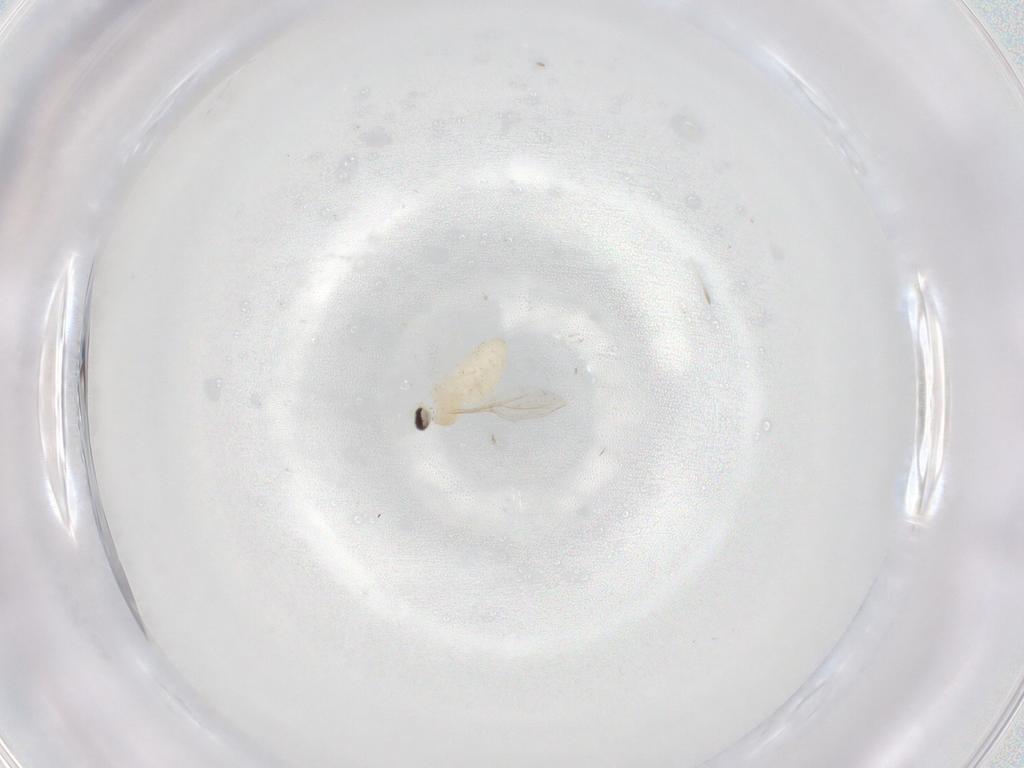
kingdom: Animalia
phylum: Arthropoda
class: Insecta
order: Diptera
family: Cecidomyiidae
